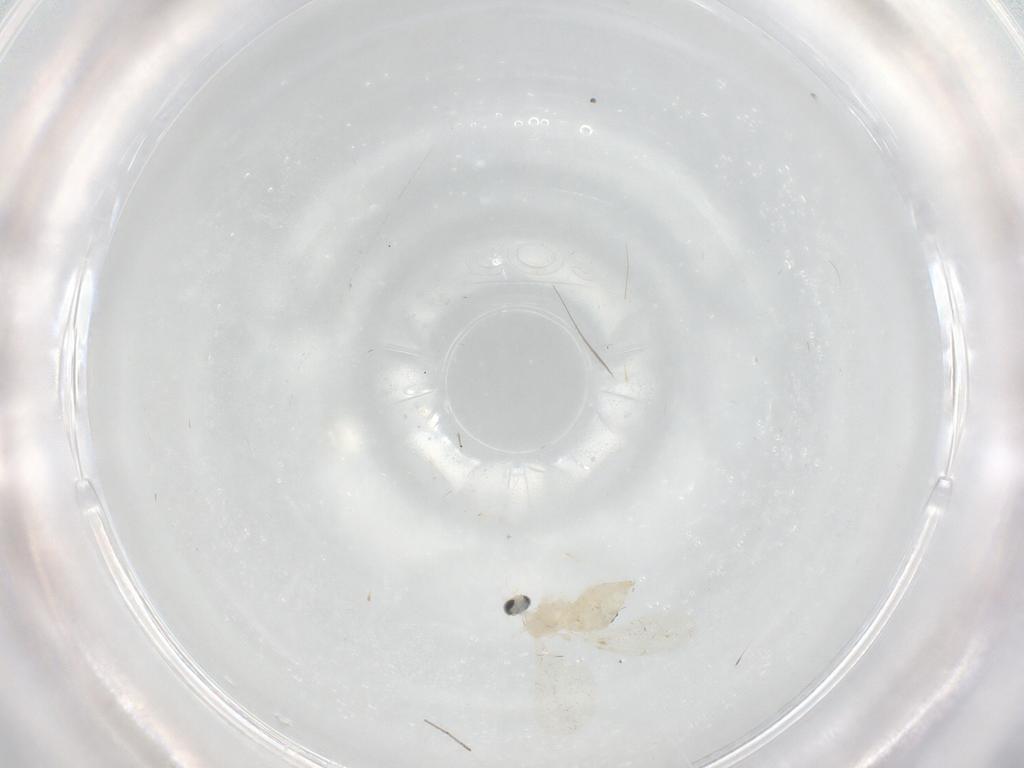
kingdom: Animalia
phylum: Arthropoda
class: Insecta
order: Diptera
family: Cecidomyiidae
